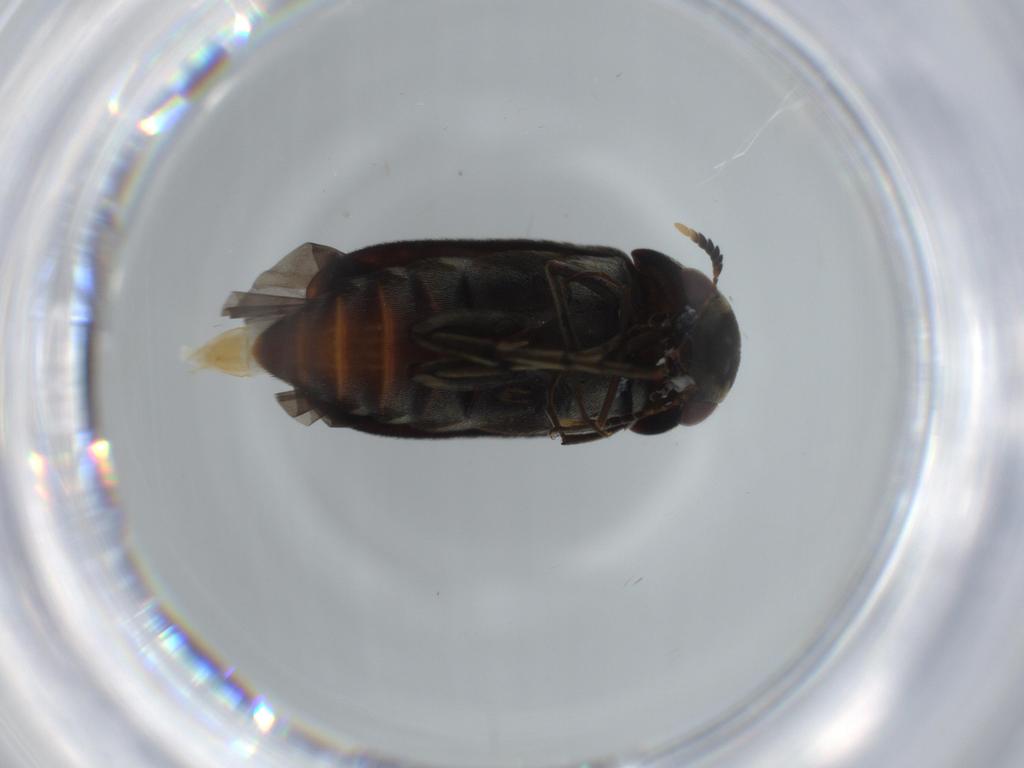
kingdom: Animalia
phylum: Arthropoda
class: Insecta
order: Coleoptera
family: Mordellidae
